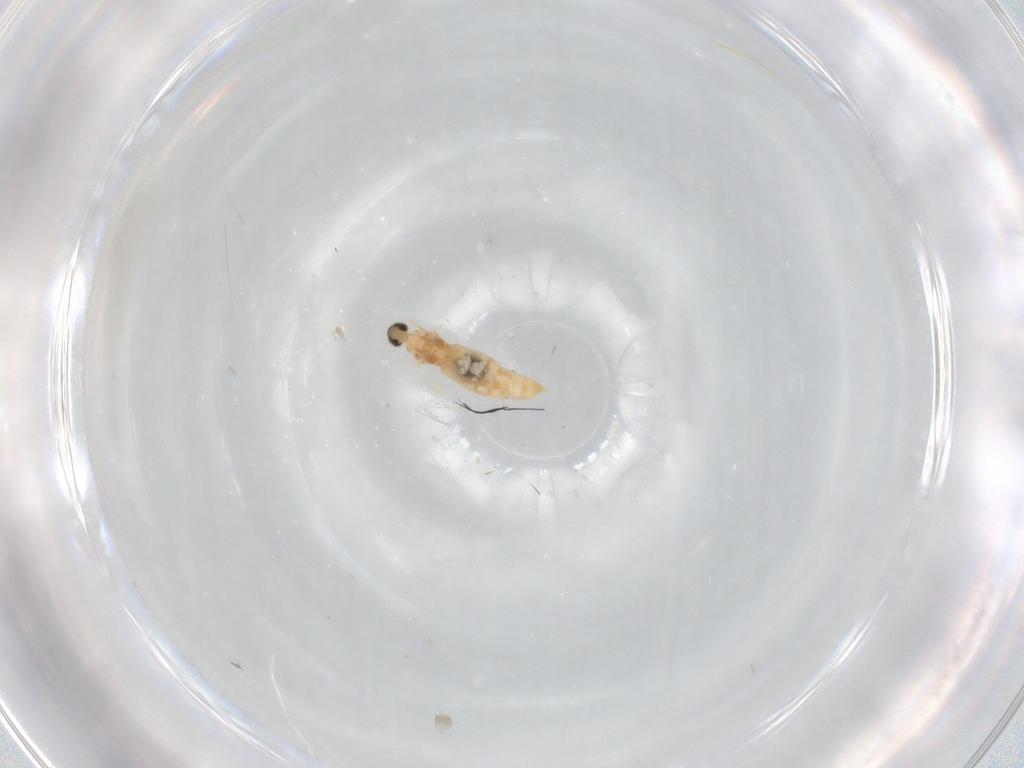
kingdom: Animalia
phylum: Arthropoda
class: Insecta
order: Diptera
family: Cecidomyiidae
